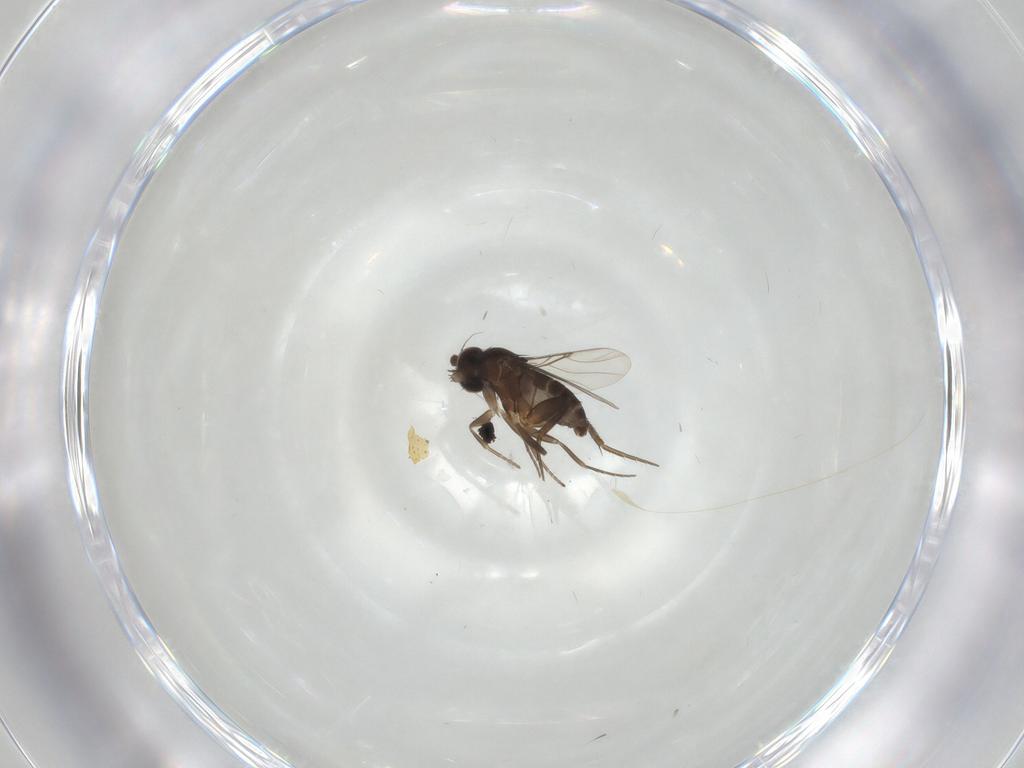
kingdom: Animalia
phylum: Arthropoda
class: Insecta
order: Diptera
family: Phoridae
